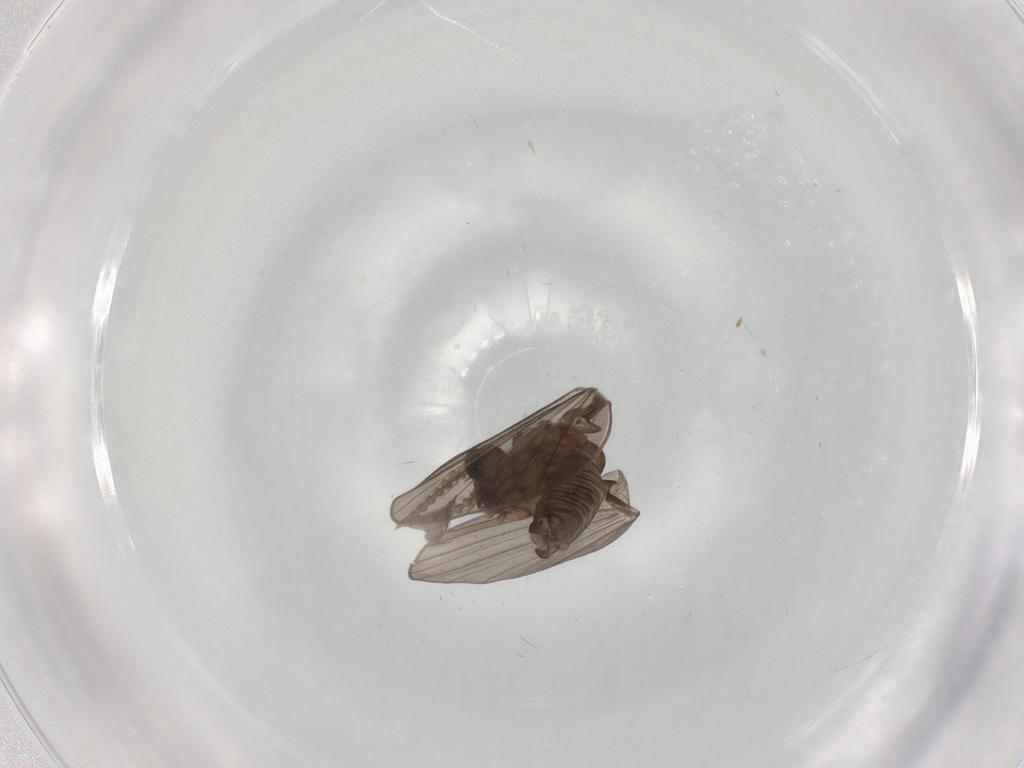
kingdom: Animalia
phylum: Arthropoda
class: Insecta
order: Diptera
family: Psychodidae
